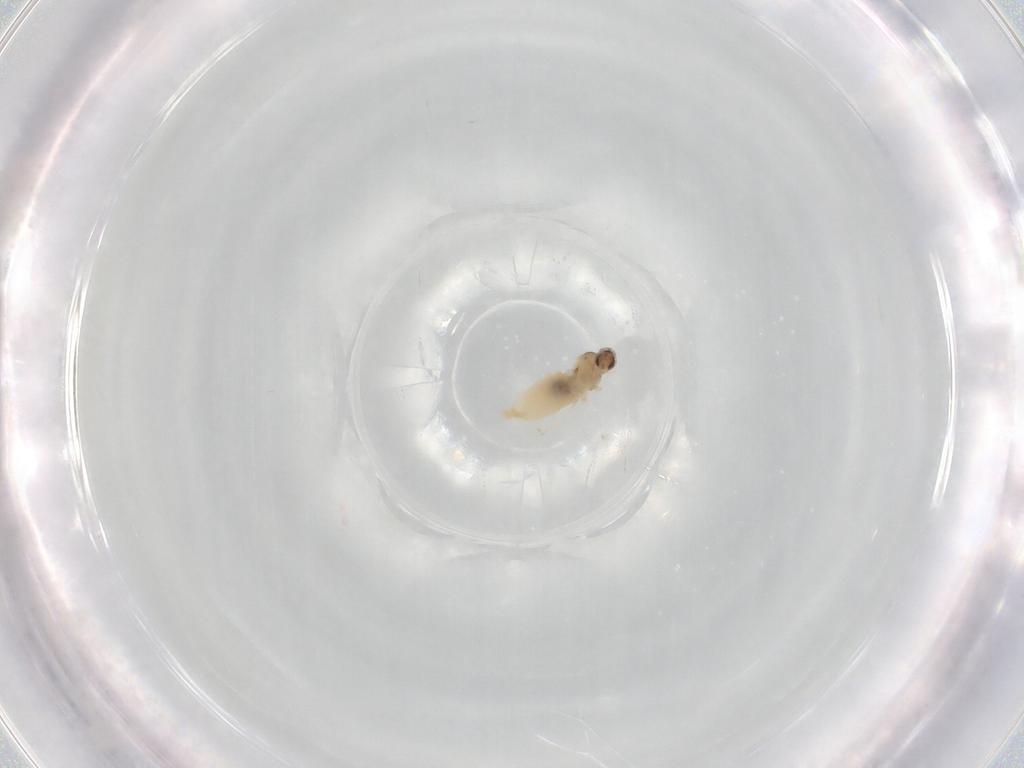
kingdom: Animalia
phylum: Arthropoda
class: Insecta
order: Diptera
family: Cecidomyiidae
